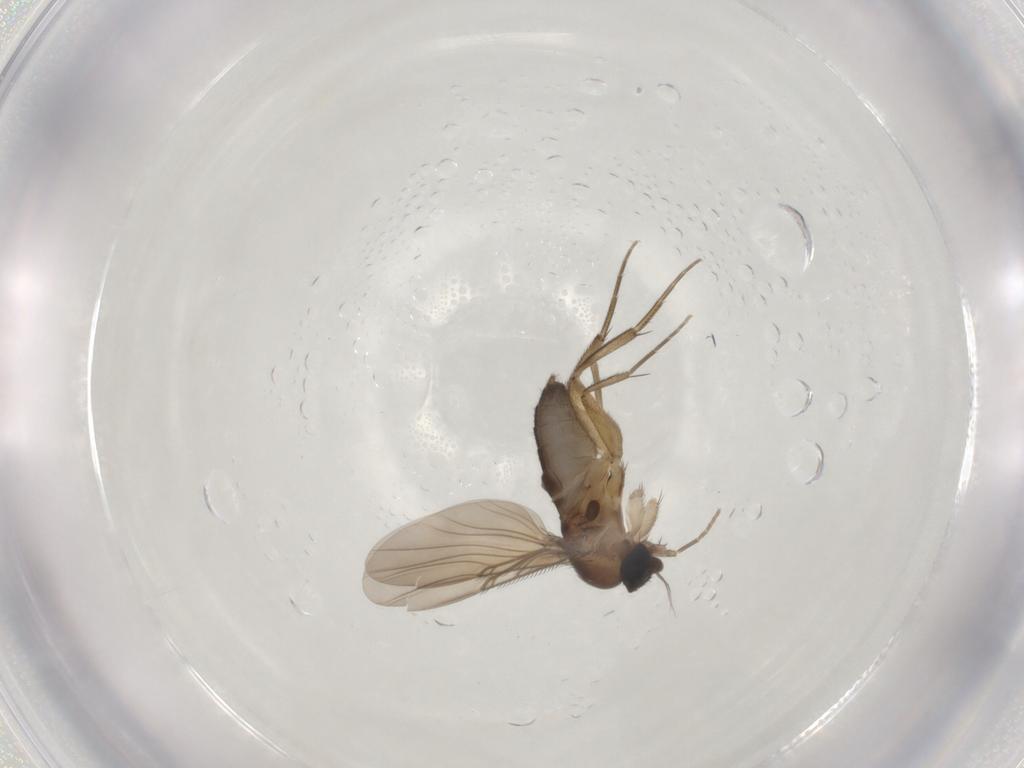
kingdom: Animalia
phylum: Arthropoda
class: Insecta
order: Diptera
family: Phoridae
